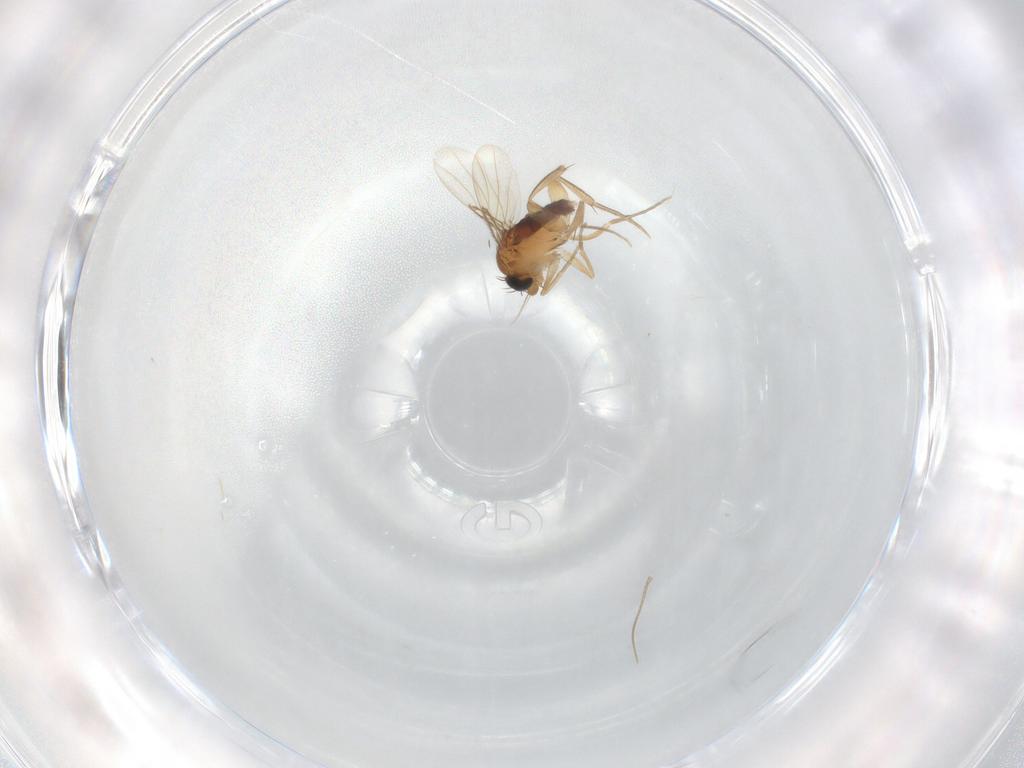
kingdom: Animalia
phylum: Arthropoda
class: Insecta
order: Diptera
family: Phoridae
